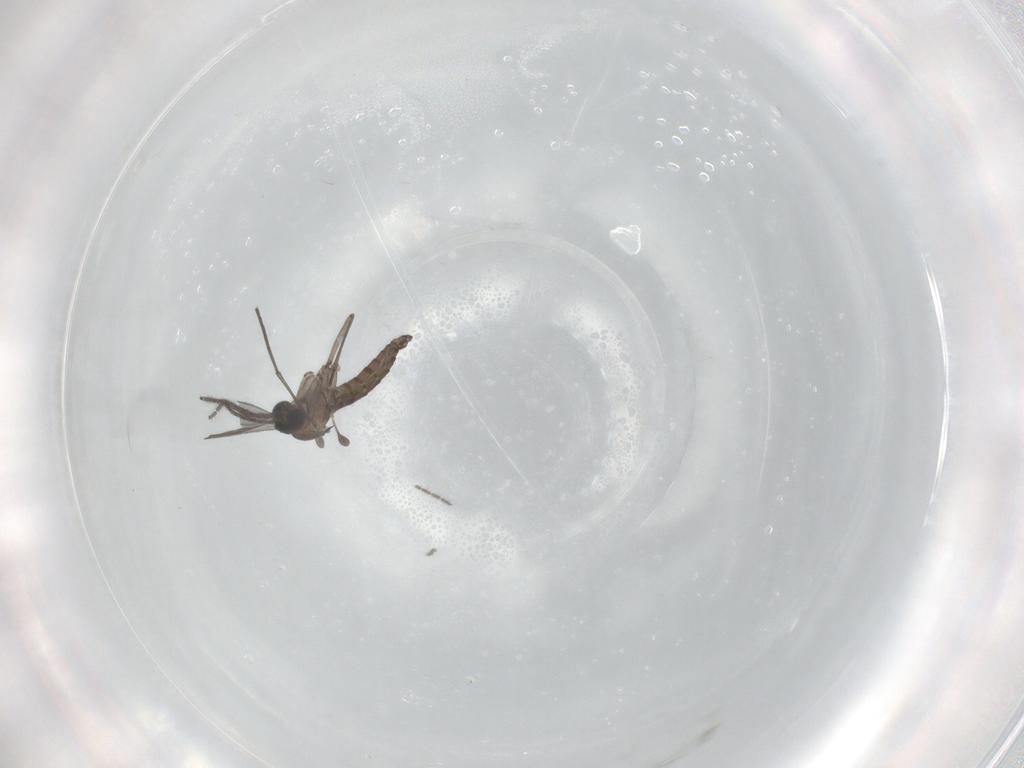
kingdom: Animalia
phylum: Arthropoda
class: Insecta
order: Diptera
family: Sciaridae
